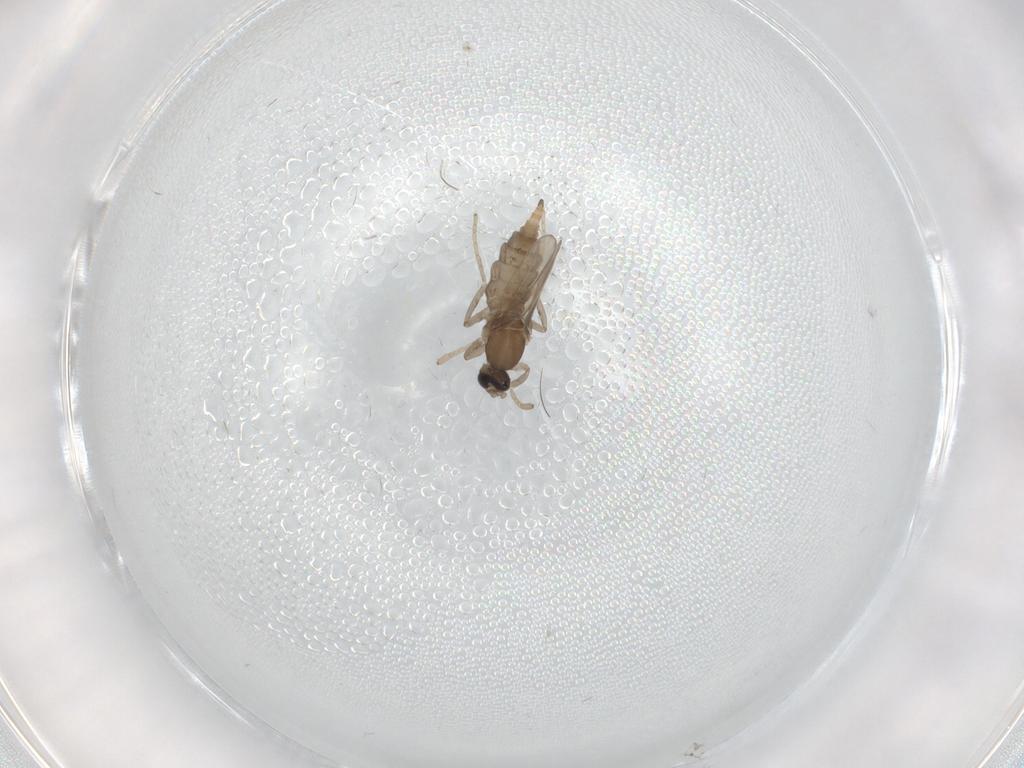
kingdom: Animalia
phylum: Arthropoda
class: Insecta
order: Diptera
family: Cecidomyiidae
